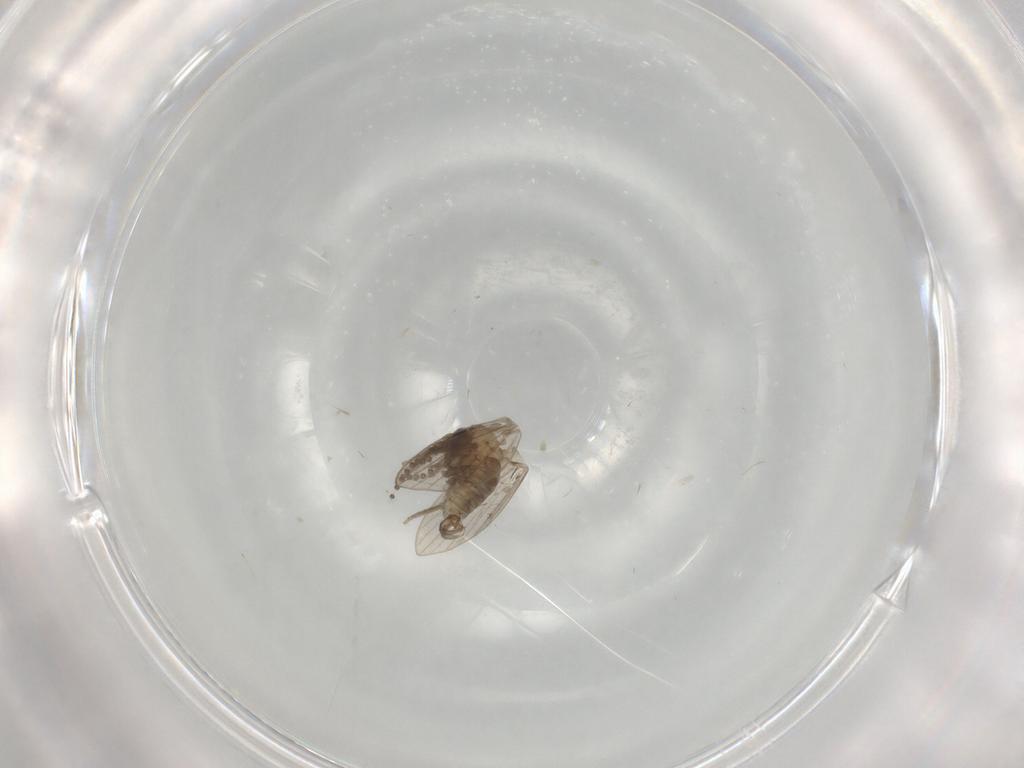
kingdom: Animalia
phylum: Arthropoda
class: Insecta
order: Diptera
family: Psychodidae
